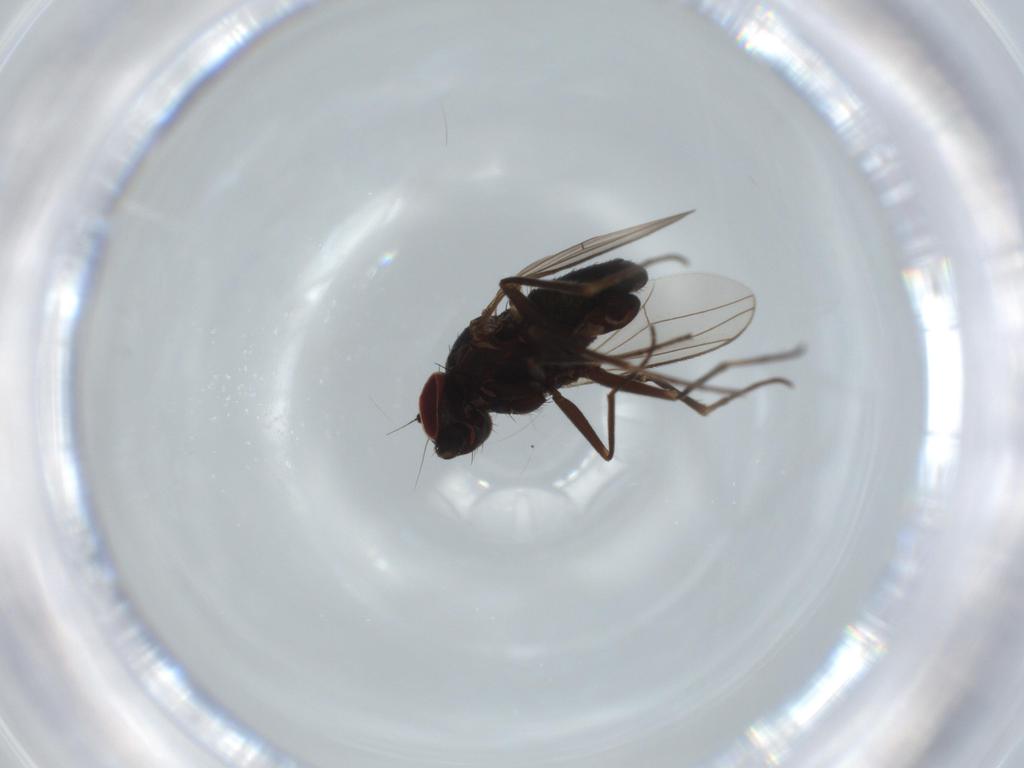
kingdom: Animalia
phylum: Arthropoda
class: Insecta
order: Diptera
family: Dolichopodidae
